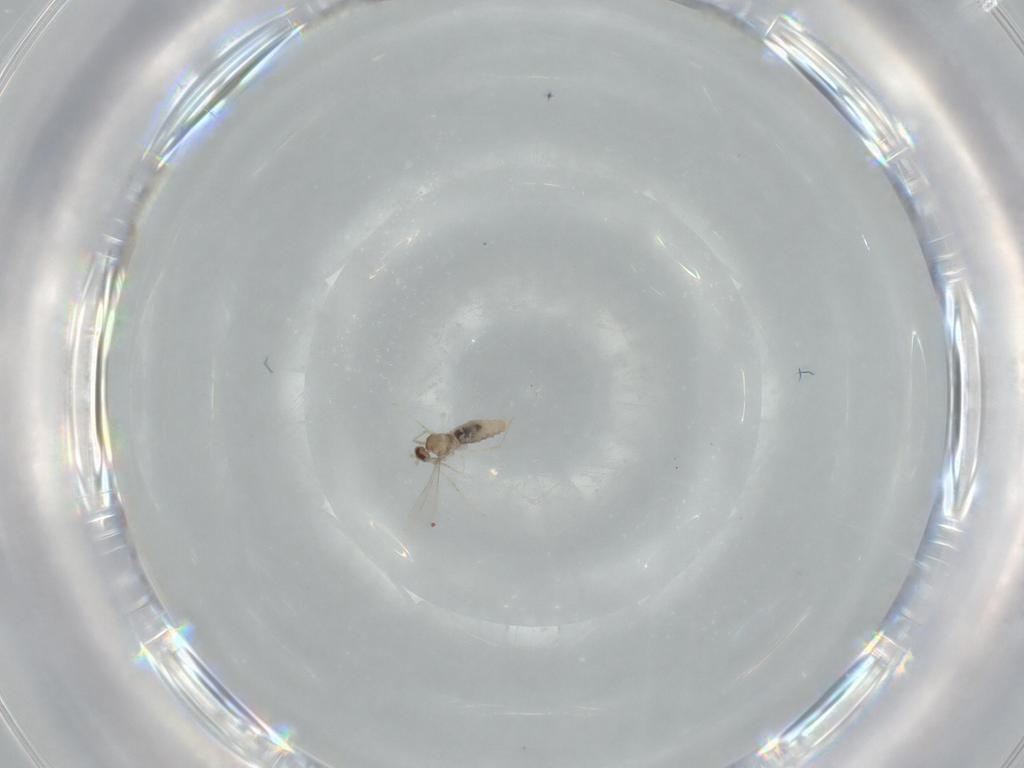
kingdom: Animalia
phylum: Arthropoda
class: Insecta
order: Diptera
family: Cecidomyiidae
